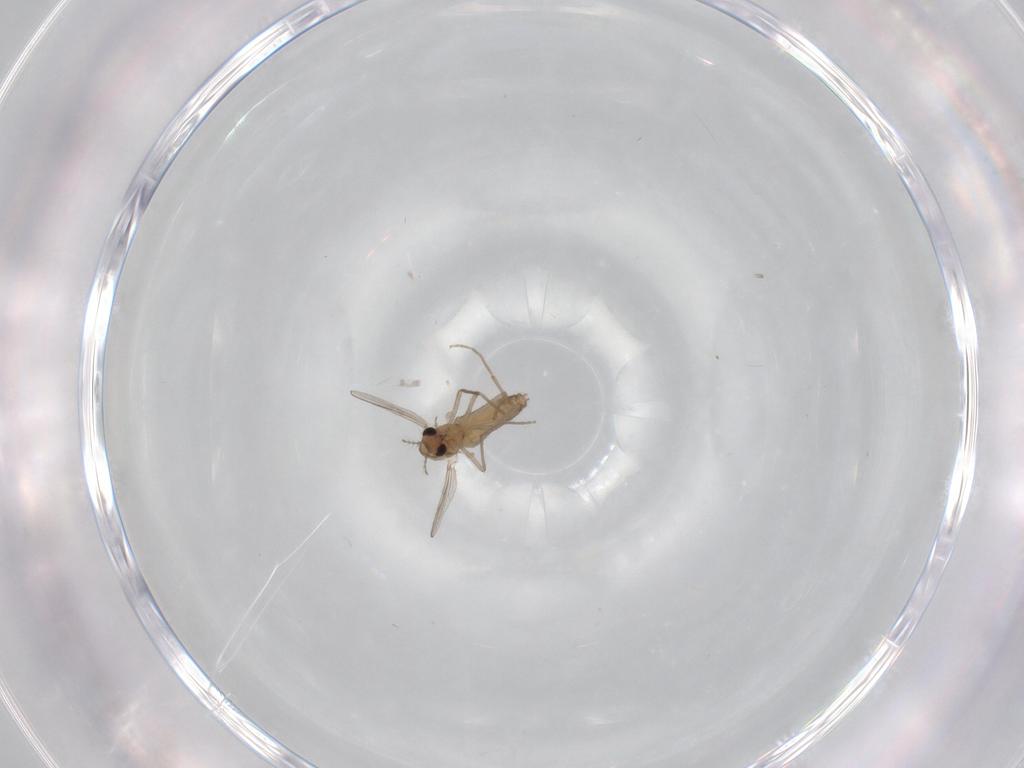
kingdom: Animalia
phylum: Arthropoda
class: Insecta
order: Diptera
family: Chironomidae
